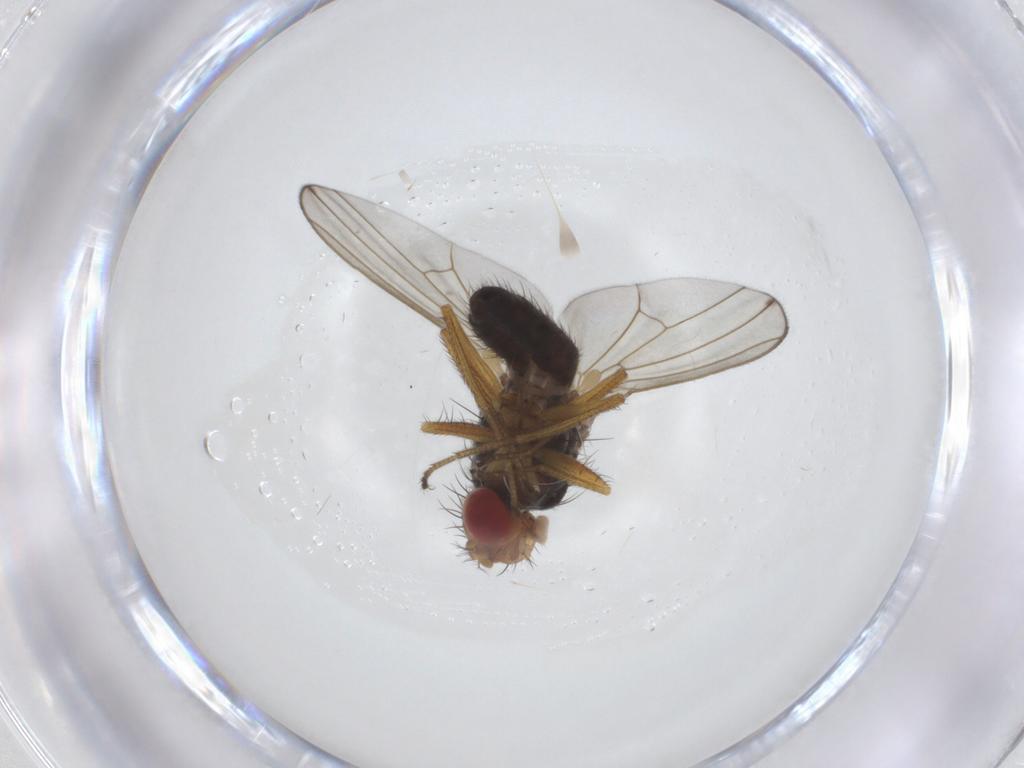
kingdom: Animalia
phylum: Arthropoda
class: Insecta
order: Diptera
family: Drosophilidae
